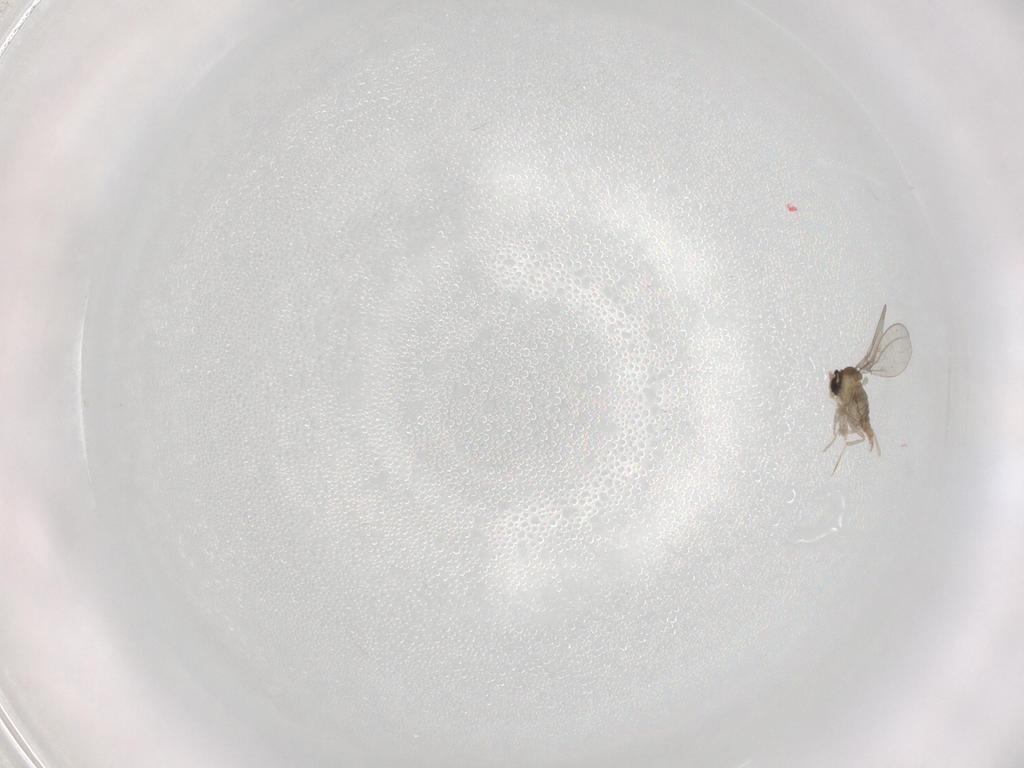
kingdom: Animalia
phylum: Arthropoda
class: Insecta
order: Diptera
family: Cecidomyiidae
